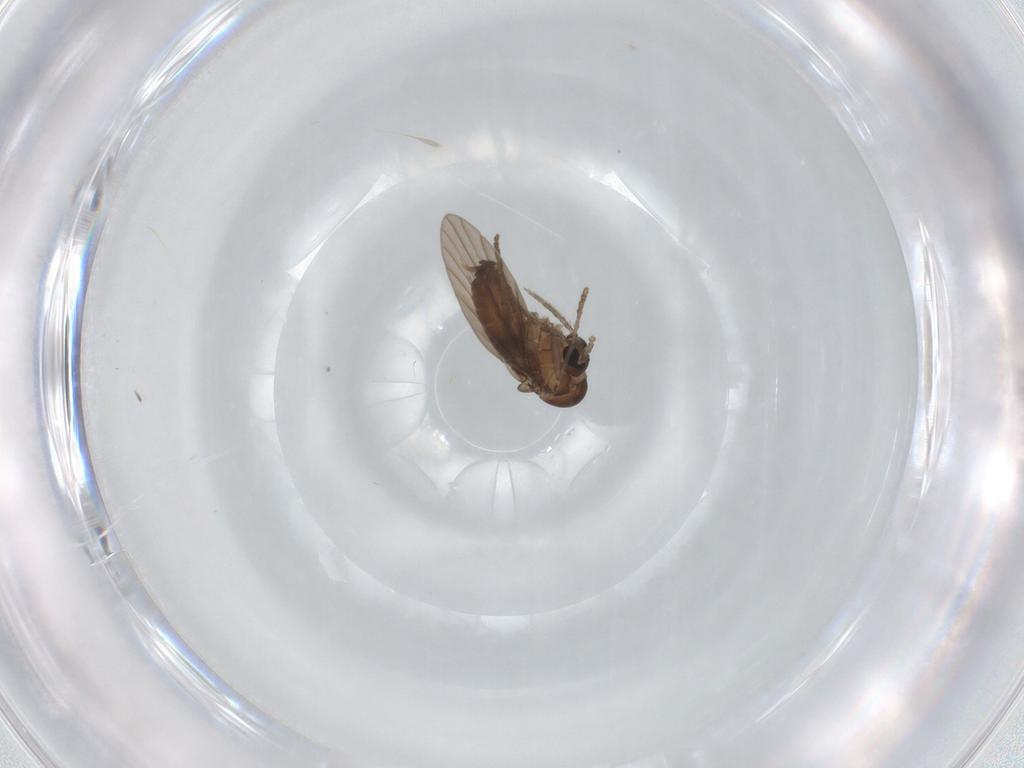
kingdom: Animalia
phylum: Arthropoda
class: Insecta
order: Diptera
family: Psychodidae
